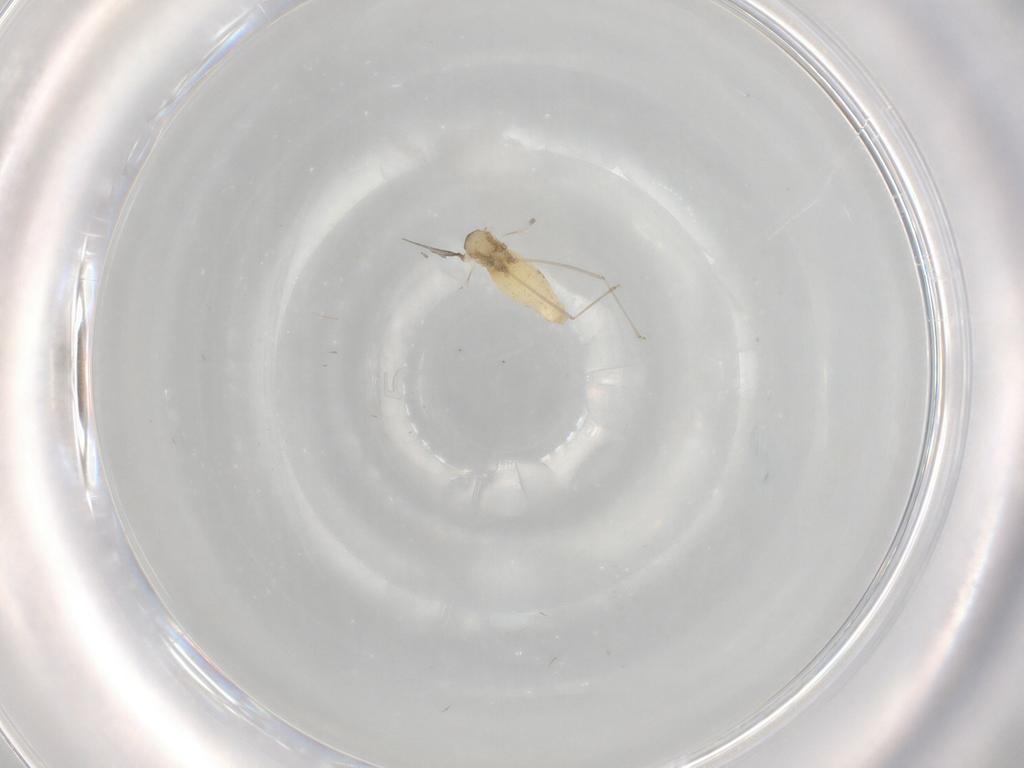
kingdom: Animalia
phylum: Arthropoda
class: Insecta
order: Diptera
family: Cecidomyiidae
